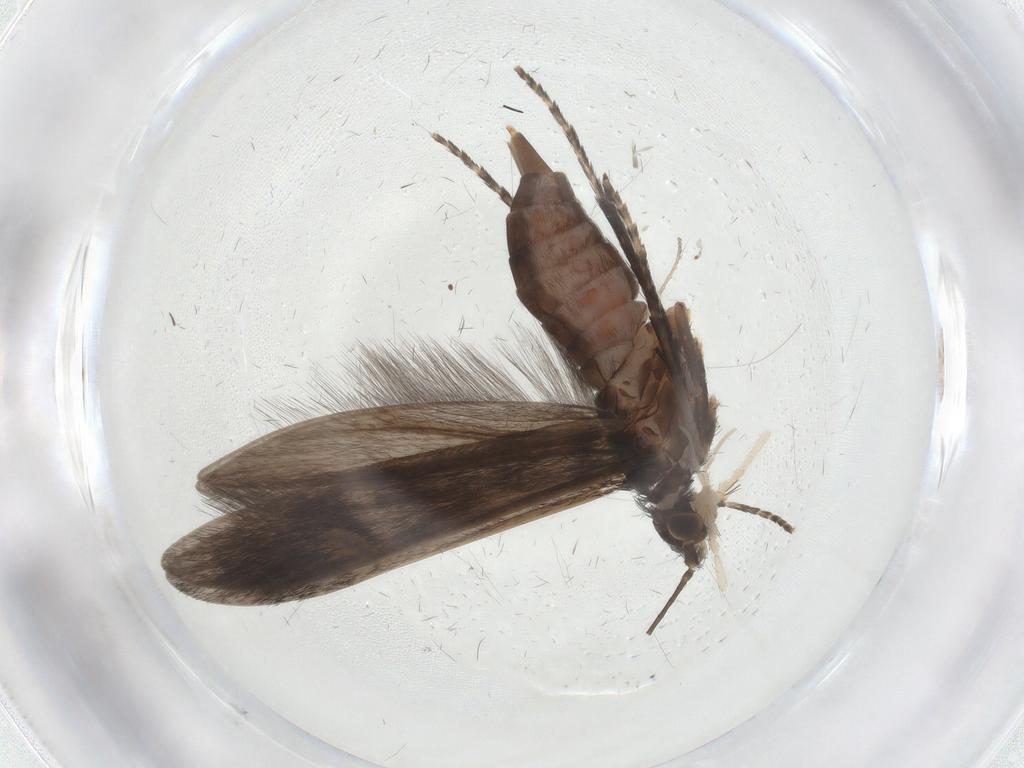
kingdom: Animalia
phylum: Arthropoda
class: Insecta
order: Trichoptera
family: Xiphocentronidae
